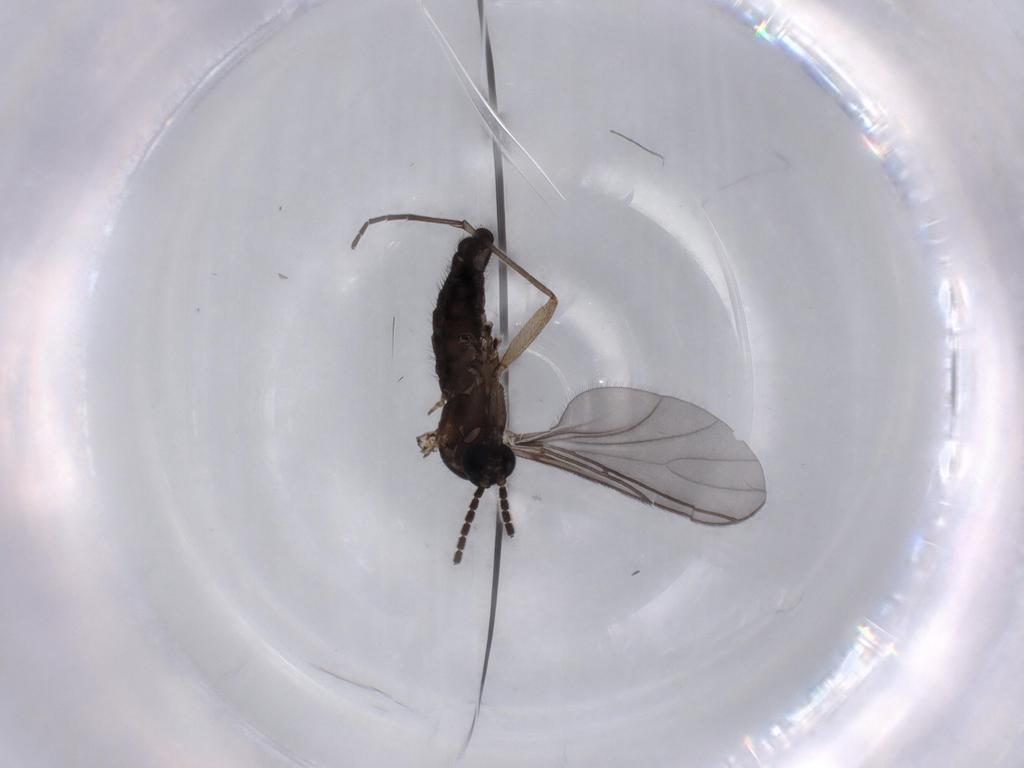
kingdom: Animalia
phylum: Arthropoda
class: Insecta
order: Diptera
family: Sciaridae
